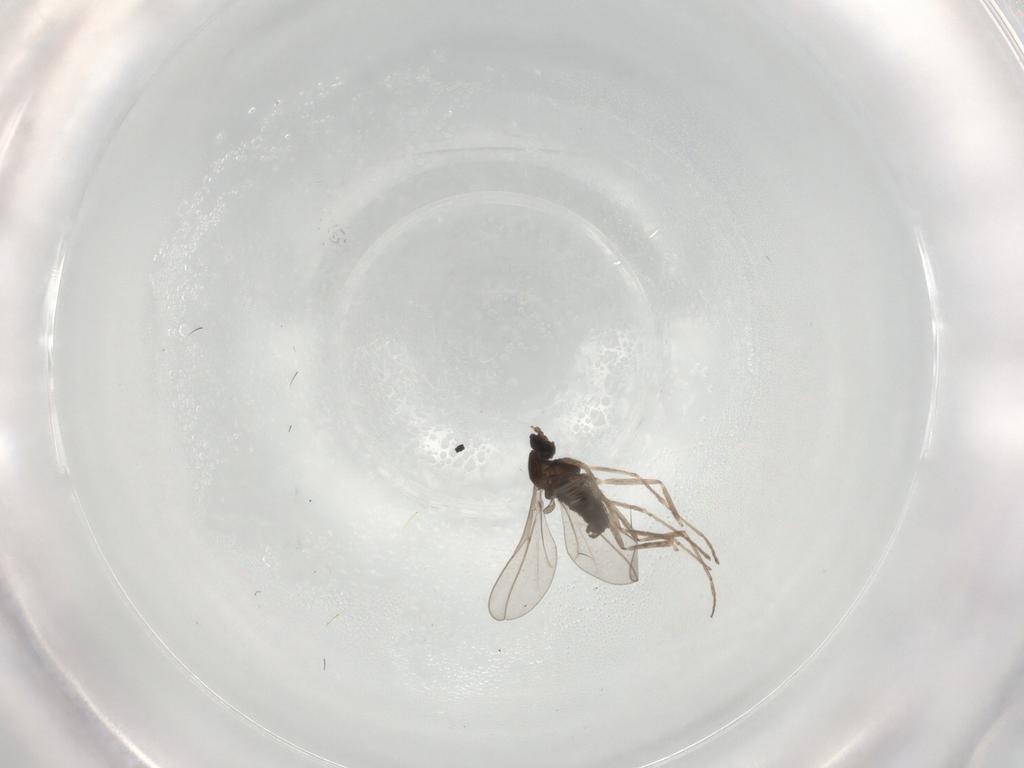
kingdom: Animalia
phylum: Arthropoda
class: Insecta
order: Diptera
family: Cecidomyiidae
